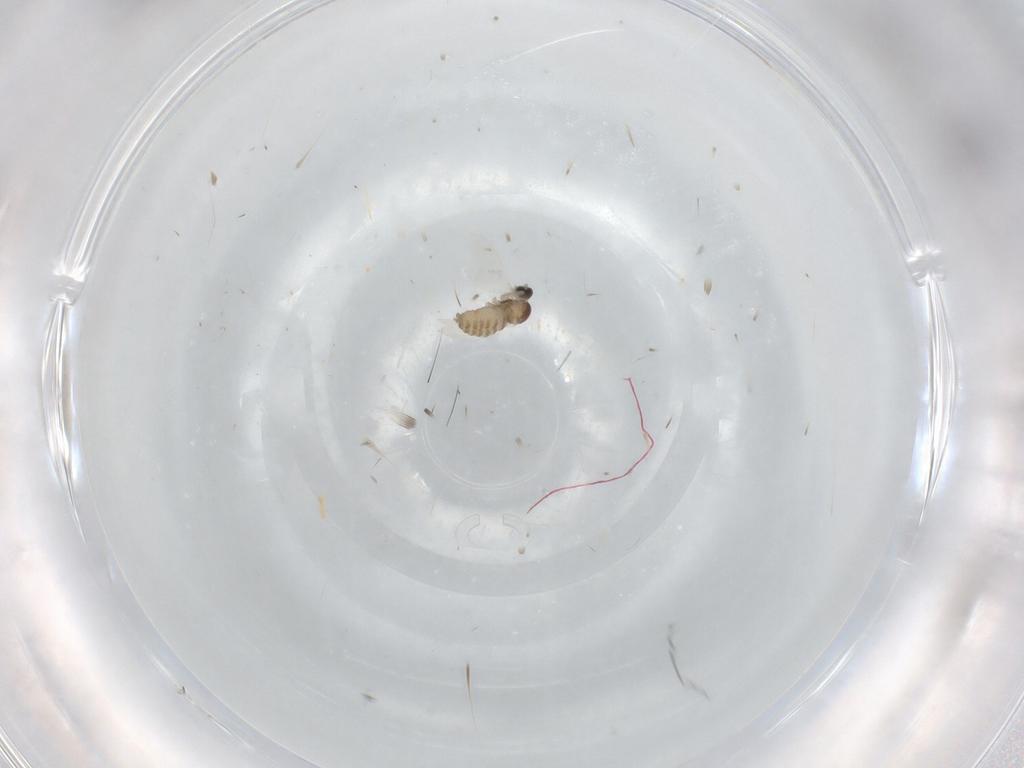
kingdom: Animalia
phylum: Arthropoda
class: Insecta
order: Diptera
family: Cecidomyiidae
